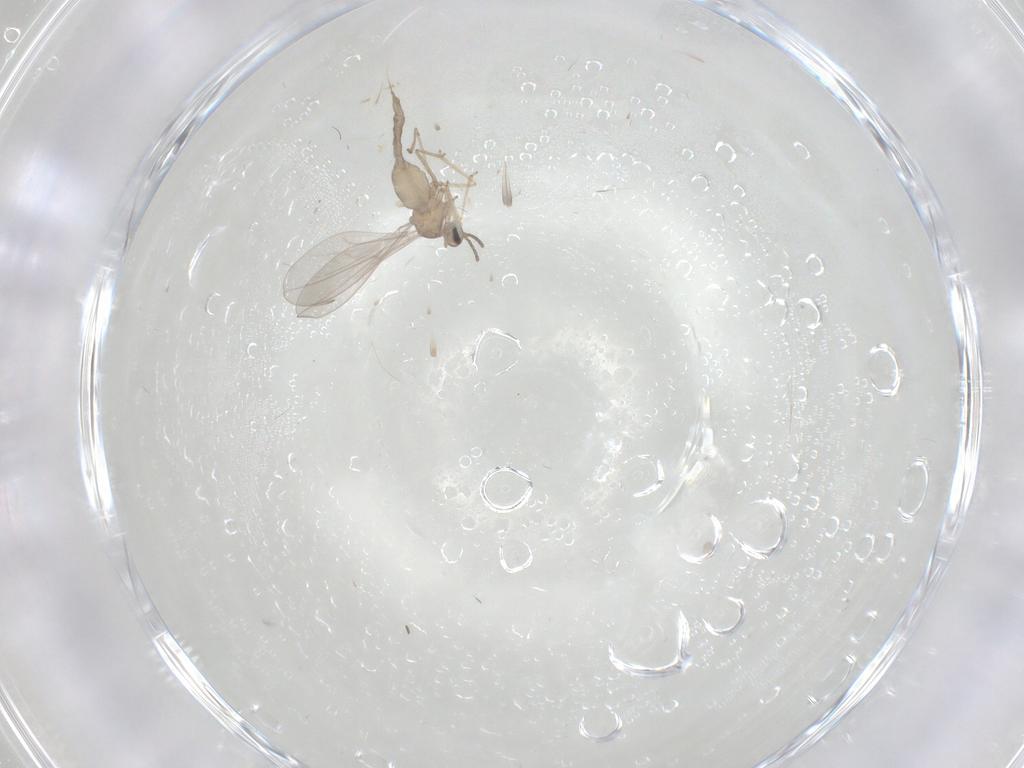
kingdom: Animalia
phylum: Arthropoda
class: Insecta
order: Diptera
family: Cecidomyiidae
